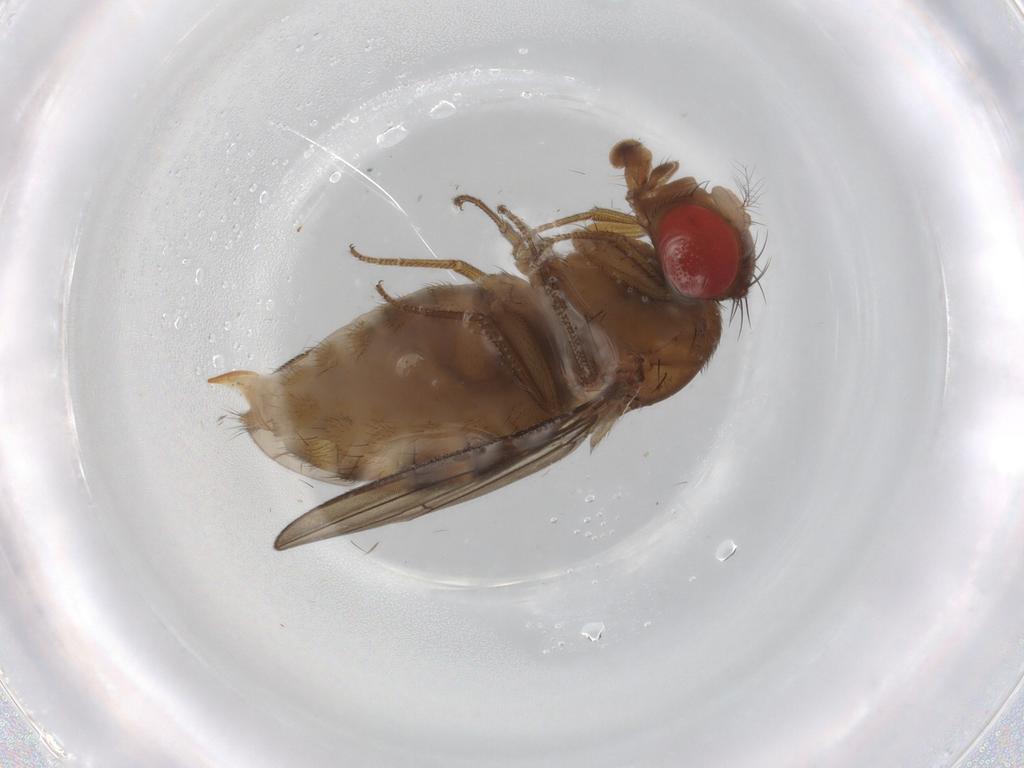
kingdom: Animalia
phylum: Arthropoda
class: Insecta
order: Diptera
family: Drosophilidae
